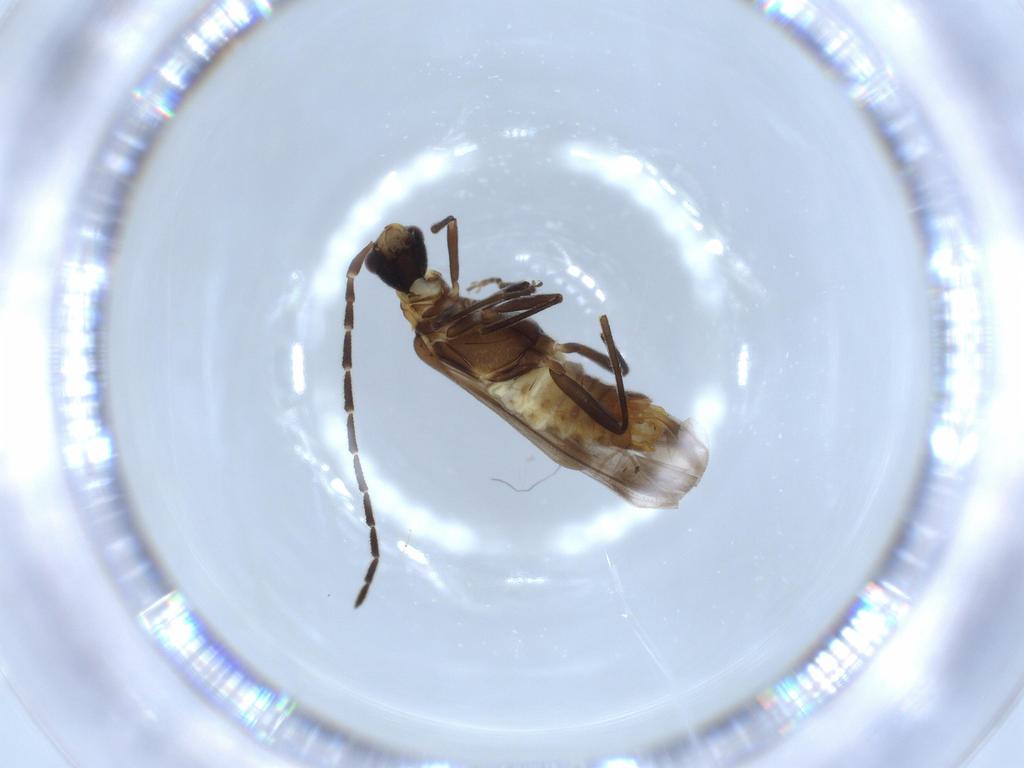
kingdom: Animalia
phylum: Arthropoda
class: Insecta
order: Coleoptera
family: Cantharidae
